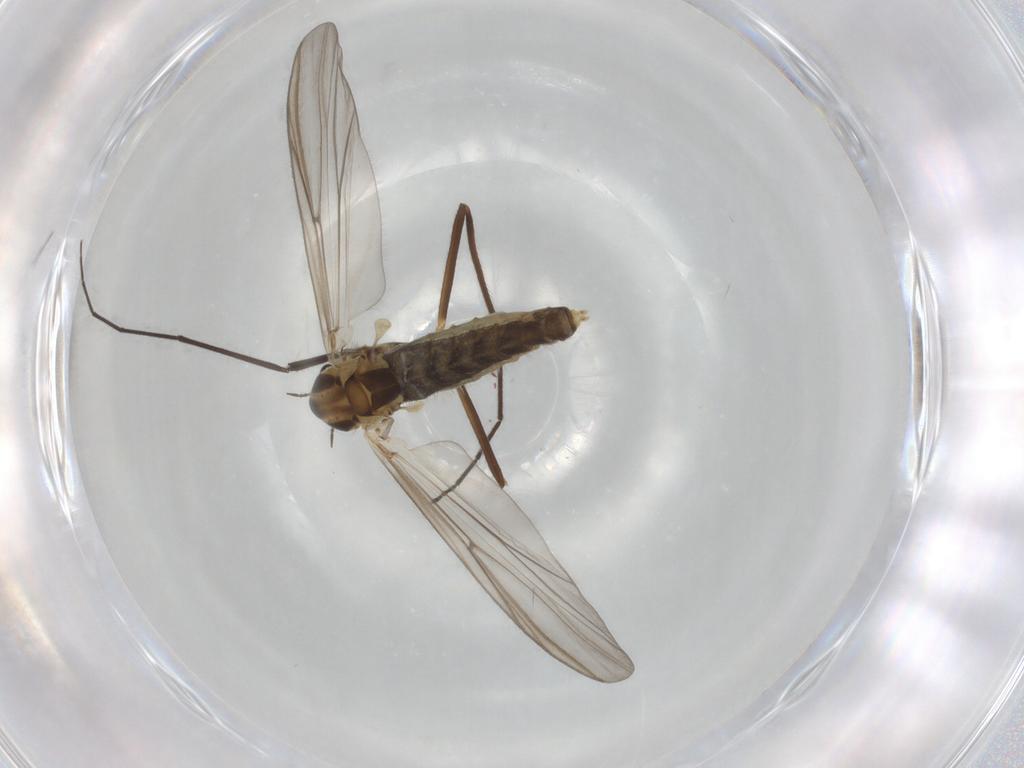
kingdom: Animalia
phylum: Arthropoda
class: Insecta
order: Diptera
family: Chironomidae
